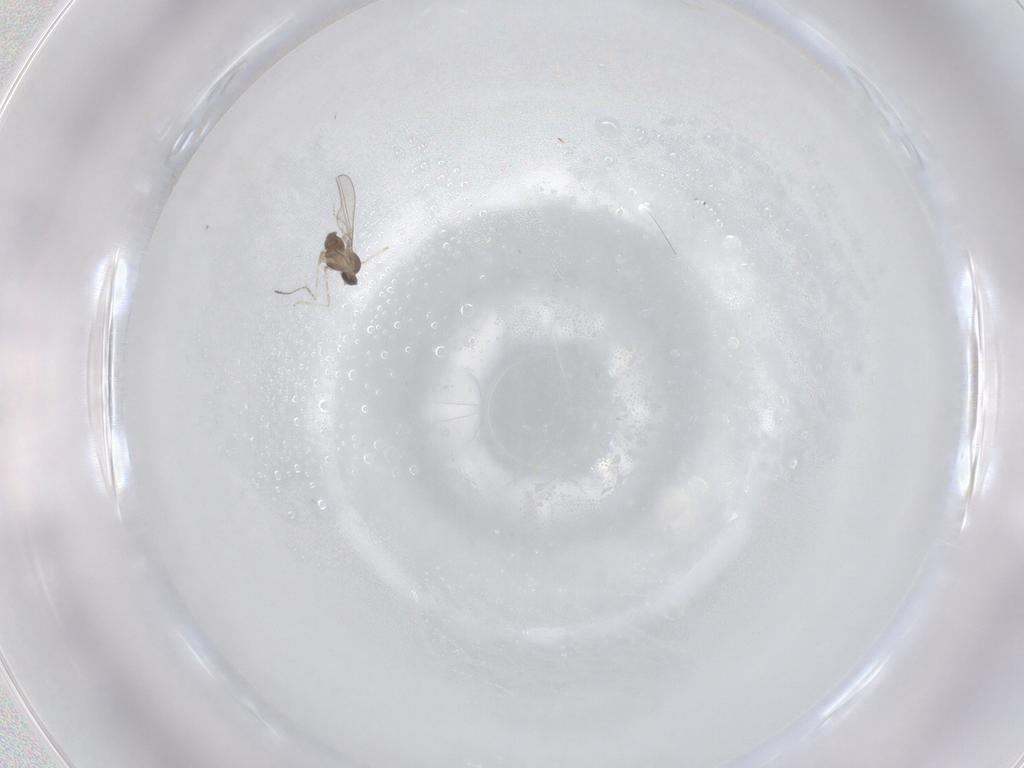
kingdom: Animalia
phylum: Arthropoda
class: Insecta
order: Diptera
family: Cecidomyiidae
